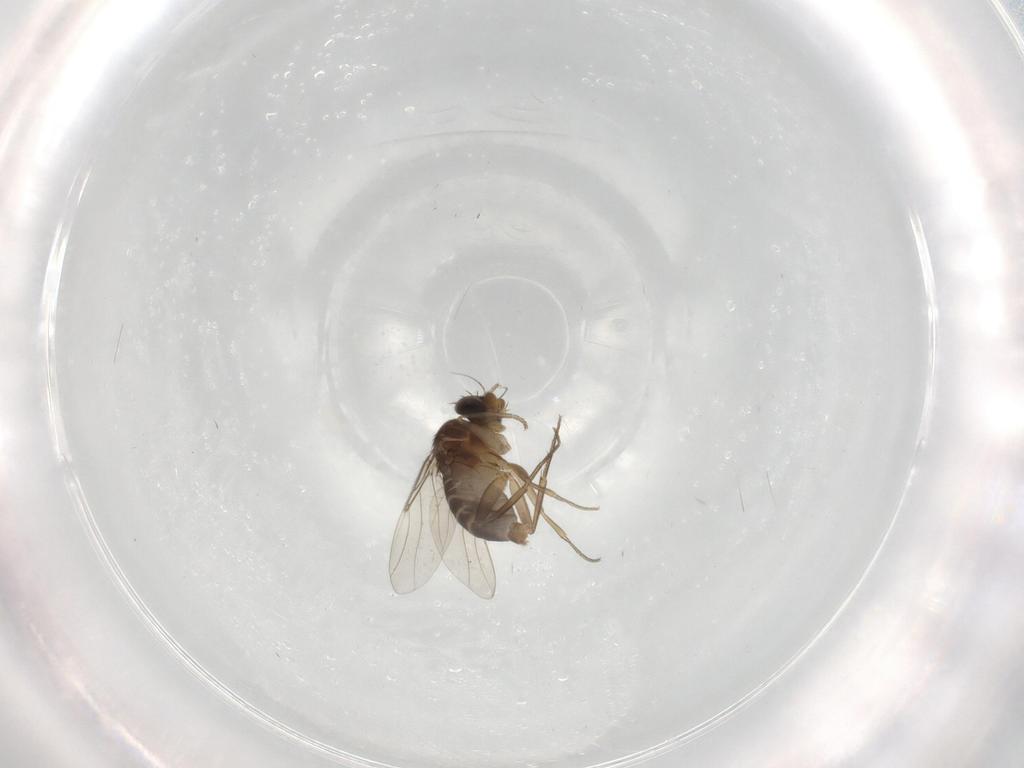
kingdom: Animalia
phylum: Arthropoda
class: Insecta
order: Diptera
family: Phoridae
